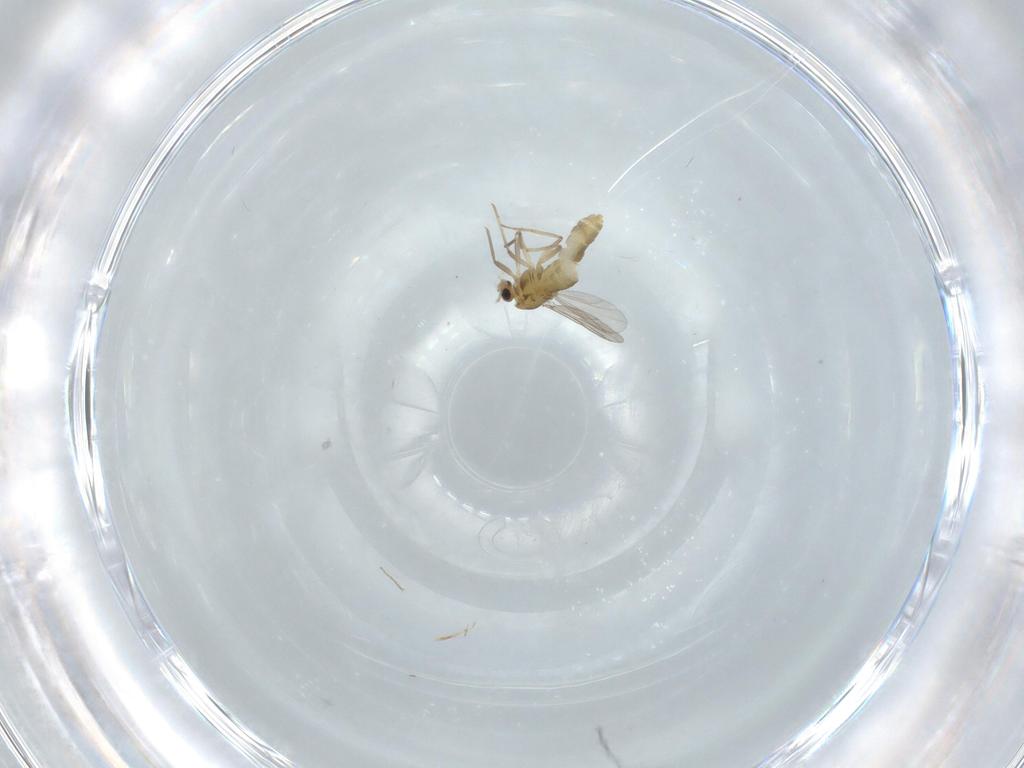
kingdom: Animalia
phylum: Arthropoda
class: Insecta
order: Diptera
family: Chironomidae
